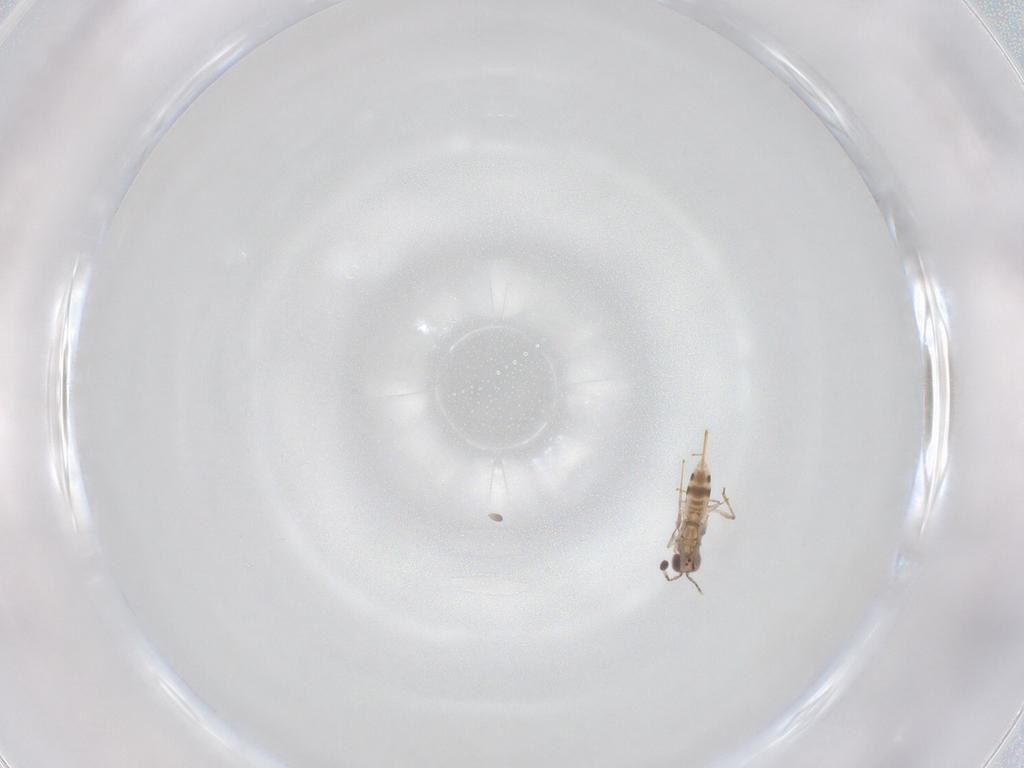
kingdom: Animalia
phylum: Arthropoda
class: Insecta
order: Hymenoptera
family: Mymaridae
